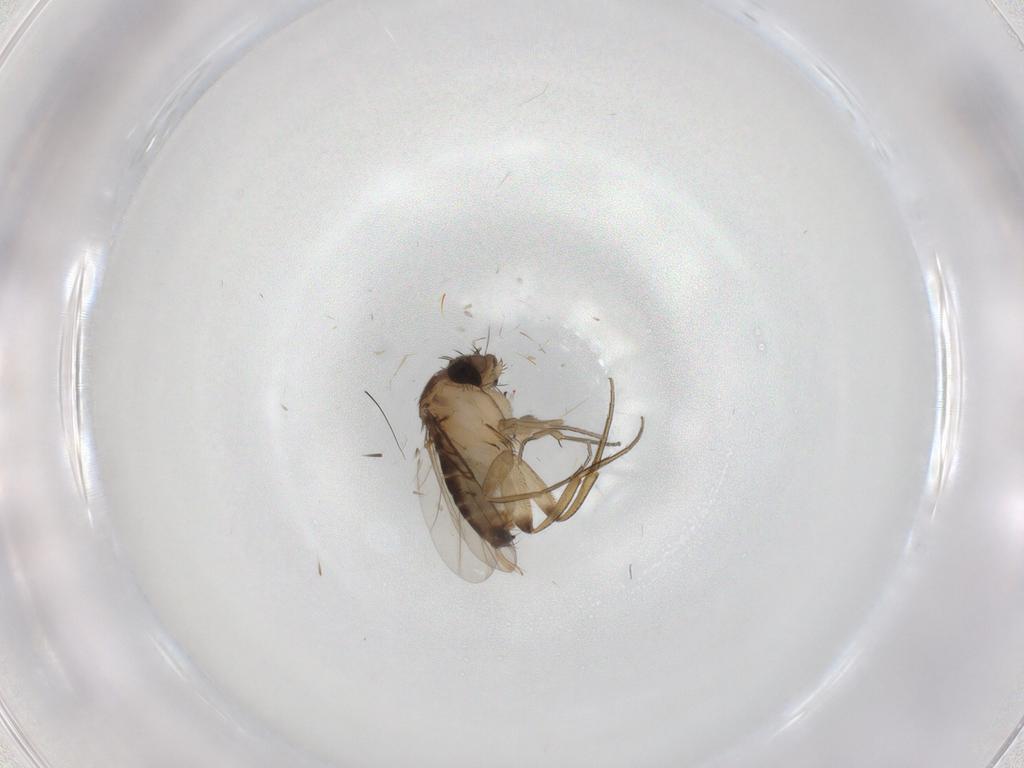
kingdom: Animalia
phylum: Arthropoda
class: Insecta
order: Diptera
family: Phoridae
